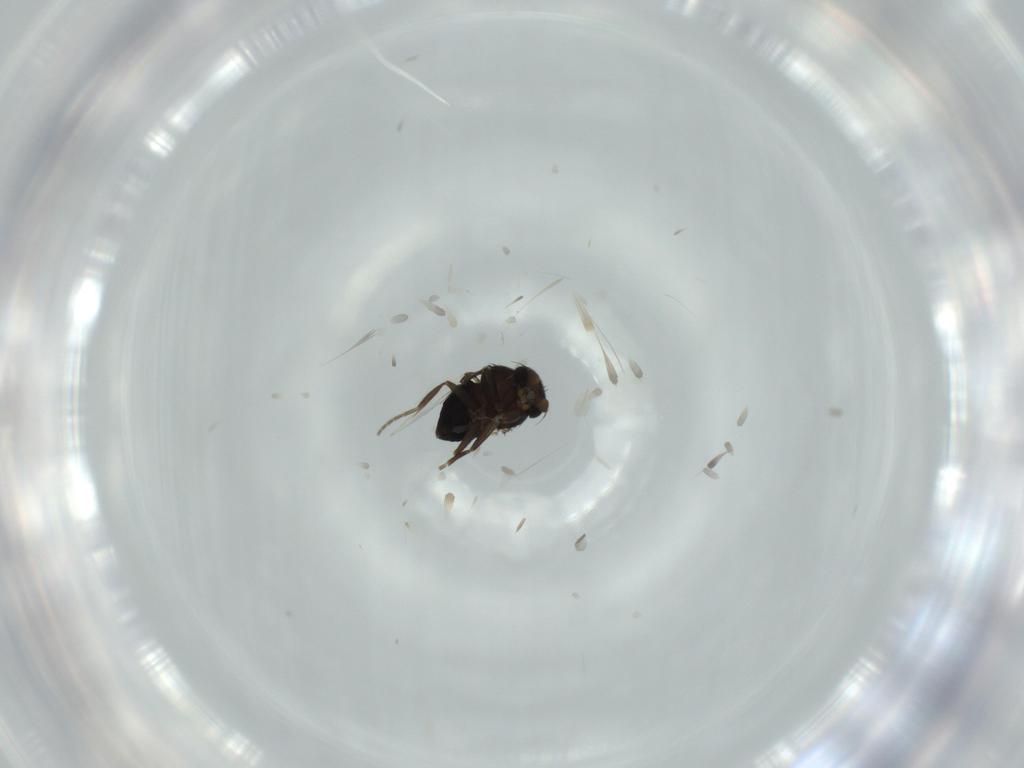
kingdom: Animalia
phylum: Arthropoda
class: Insecta
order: Diptera
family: Phoridae
